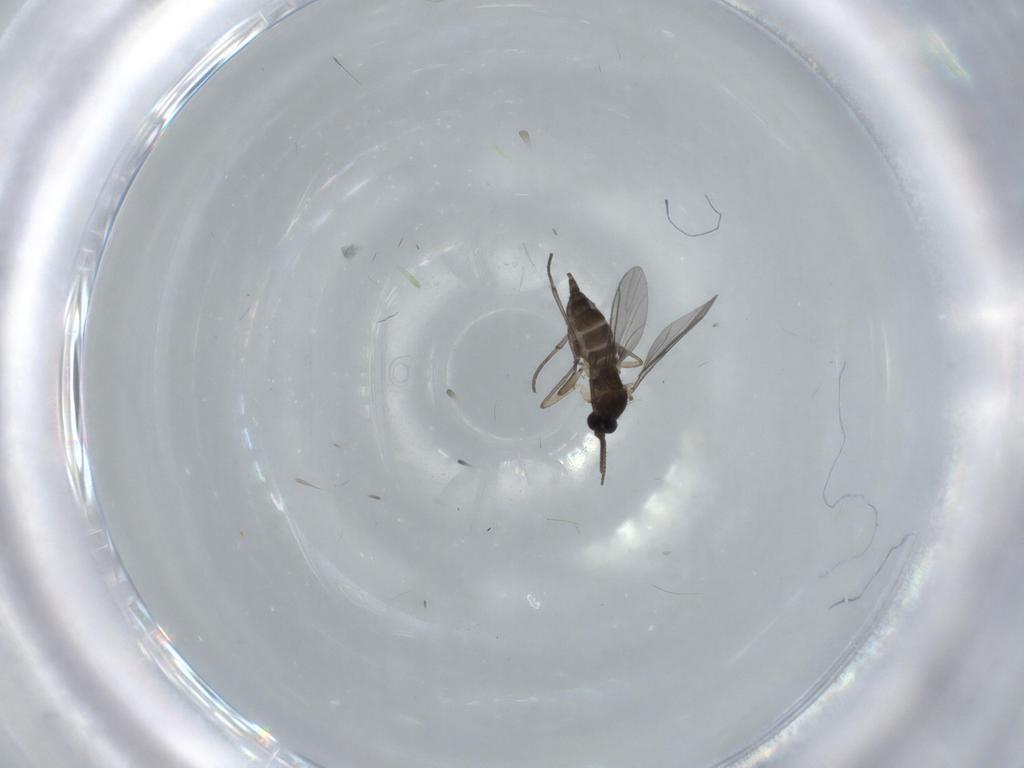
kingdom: Animalia
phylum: Arthropoda
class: Insecta
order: Diptera
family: Sciaridae
